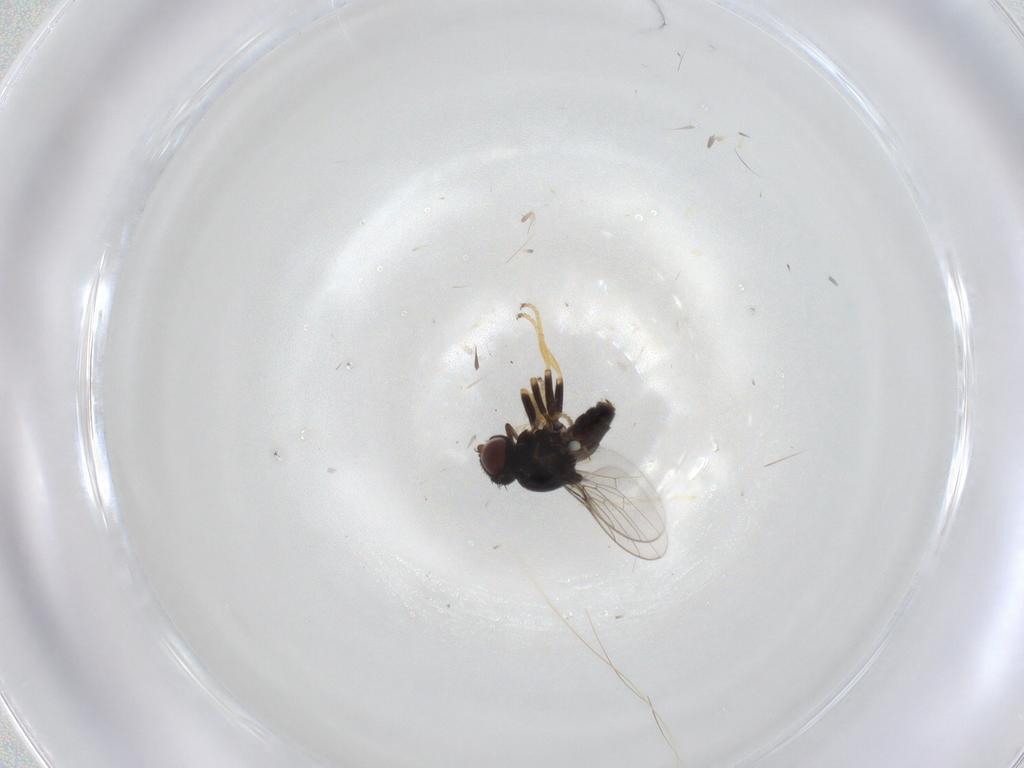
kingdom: Animalia
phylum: Arthropoda
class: Insecta
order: Diptera
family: Chloropidae
